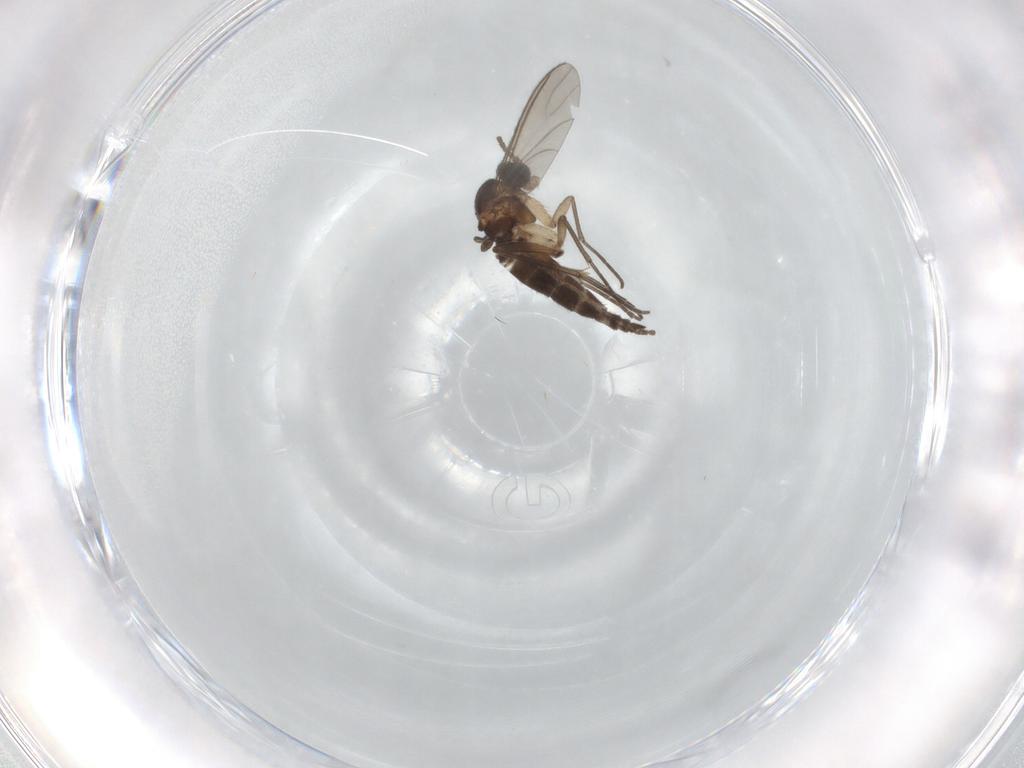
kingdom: Animalia
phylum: Arthropoda
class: Insecta
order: Diptera
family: Sciaridae
